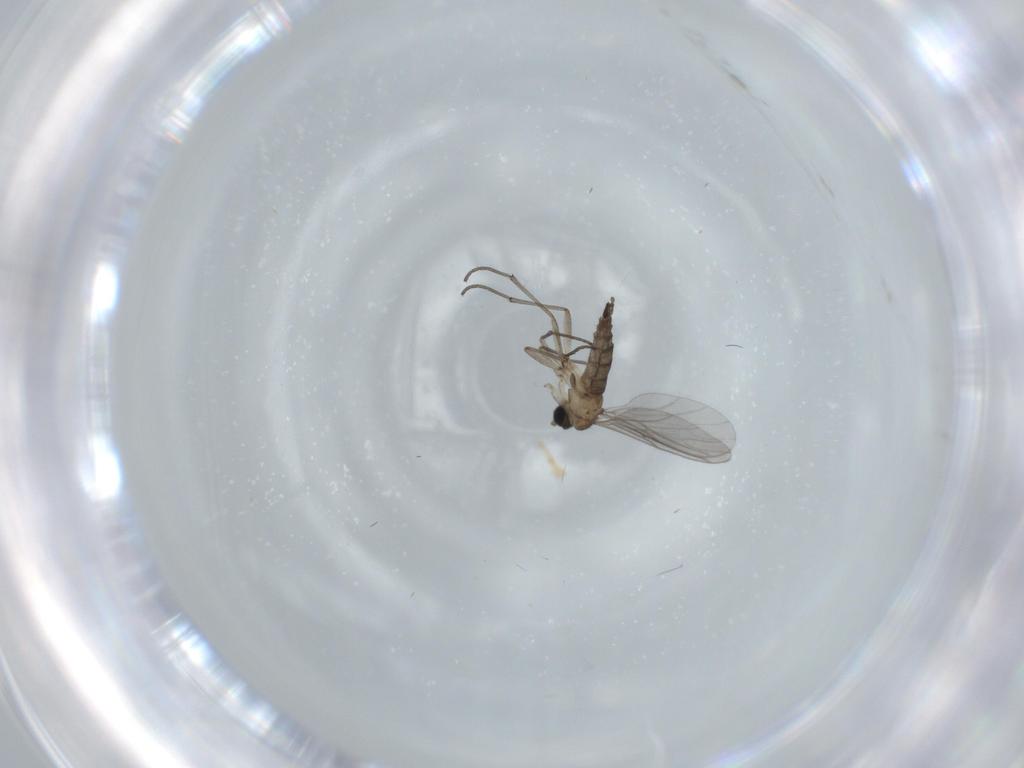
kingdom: Animalia
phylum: Arthropoda
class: Insecta
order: Diptera
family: Sciaridae
